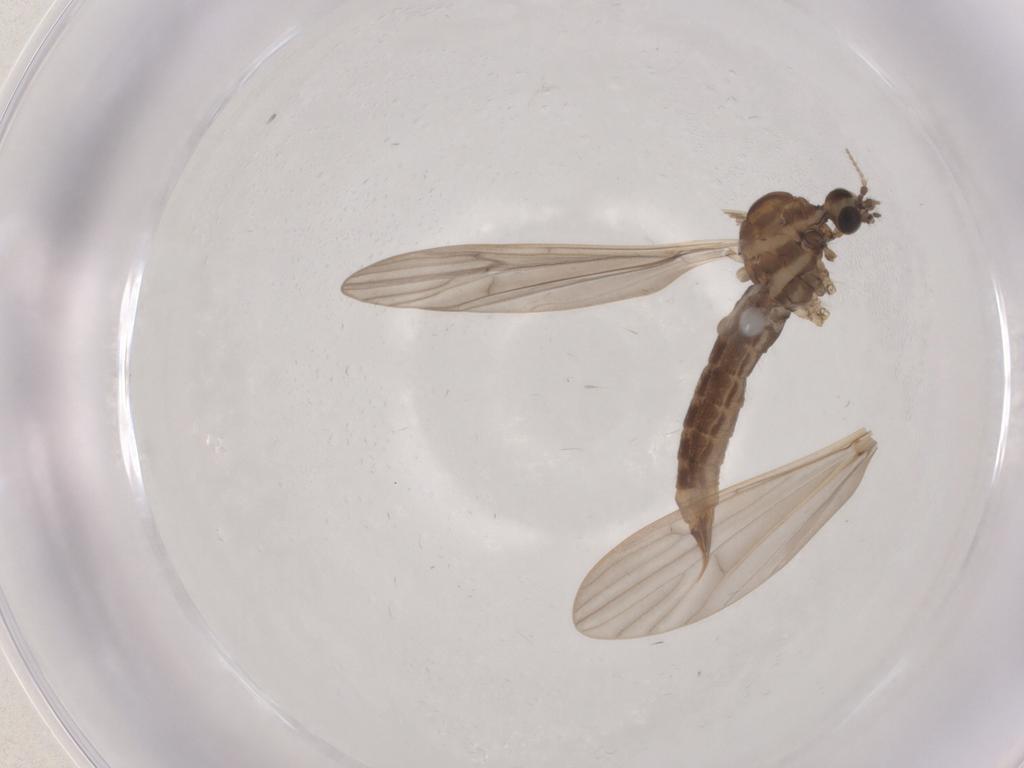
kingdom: Animalia
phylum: Arthropoda
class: Insecta
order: Diptera
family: Limoniidae
